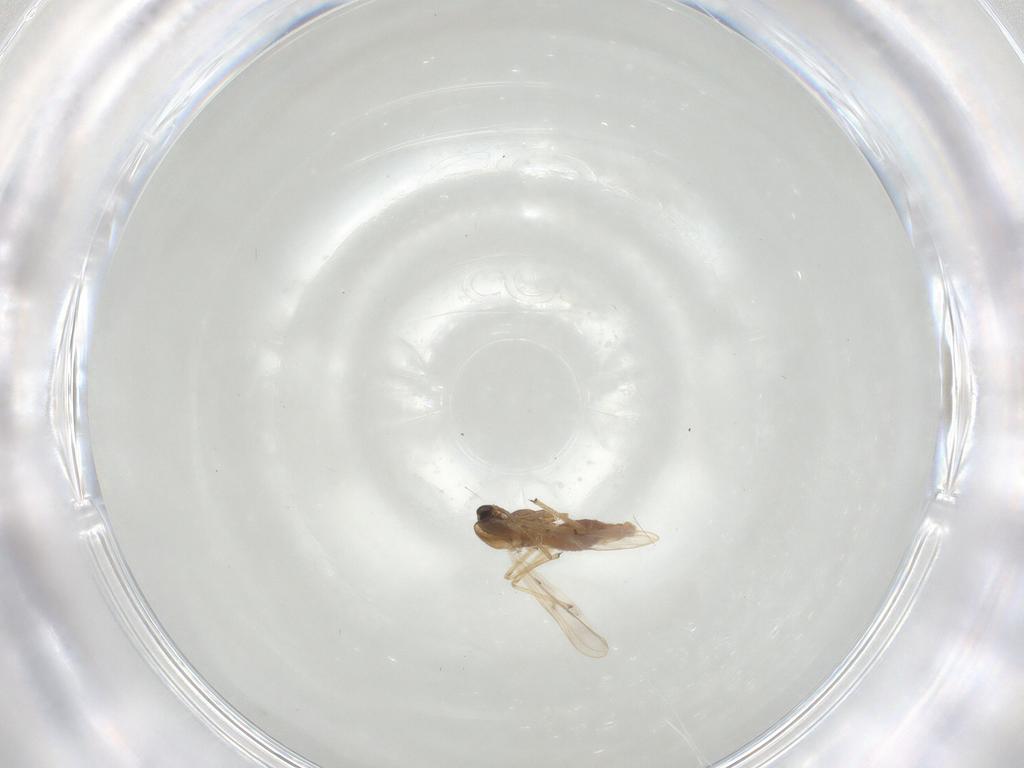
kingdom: Animalia
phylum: Arthropoda
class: Insecta
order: Diptera
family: Chironomidae
